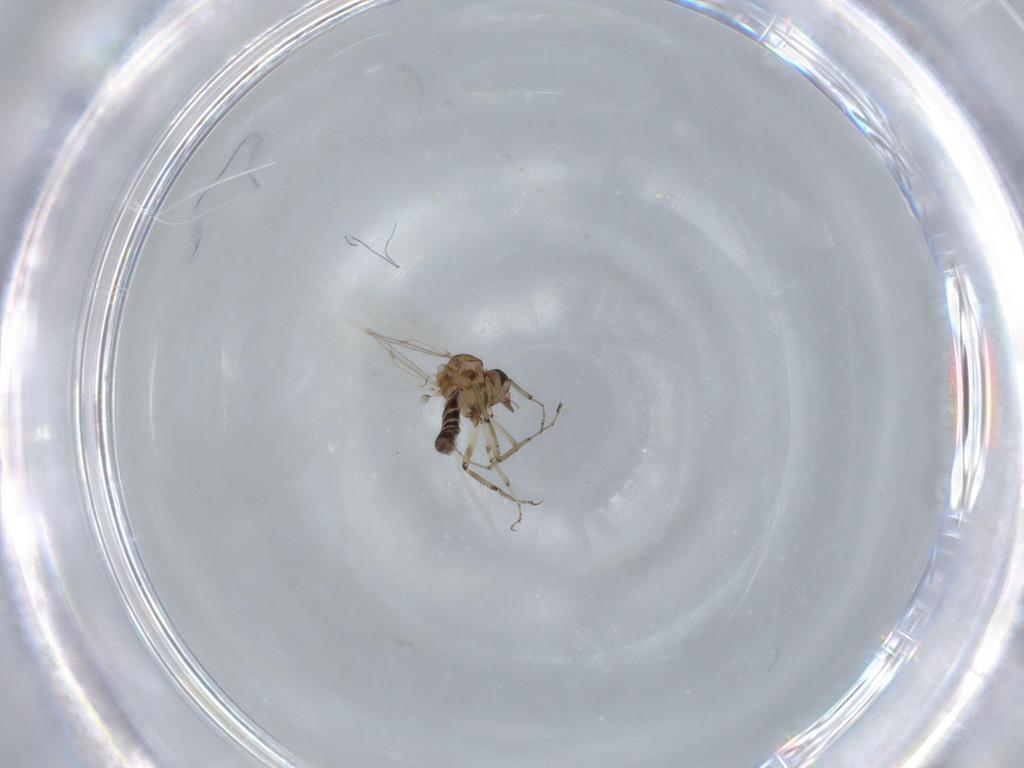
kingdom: Animalia
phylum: Arthropoda
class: Insecta
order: Diptera
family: Ceratopogonidae
